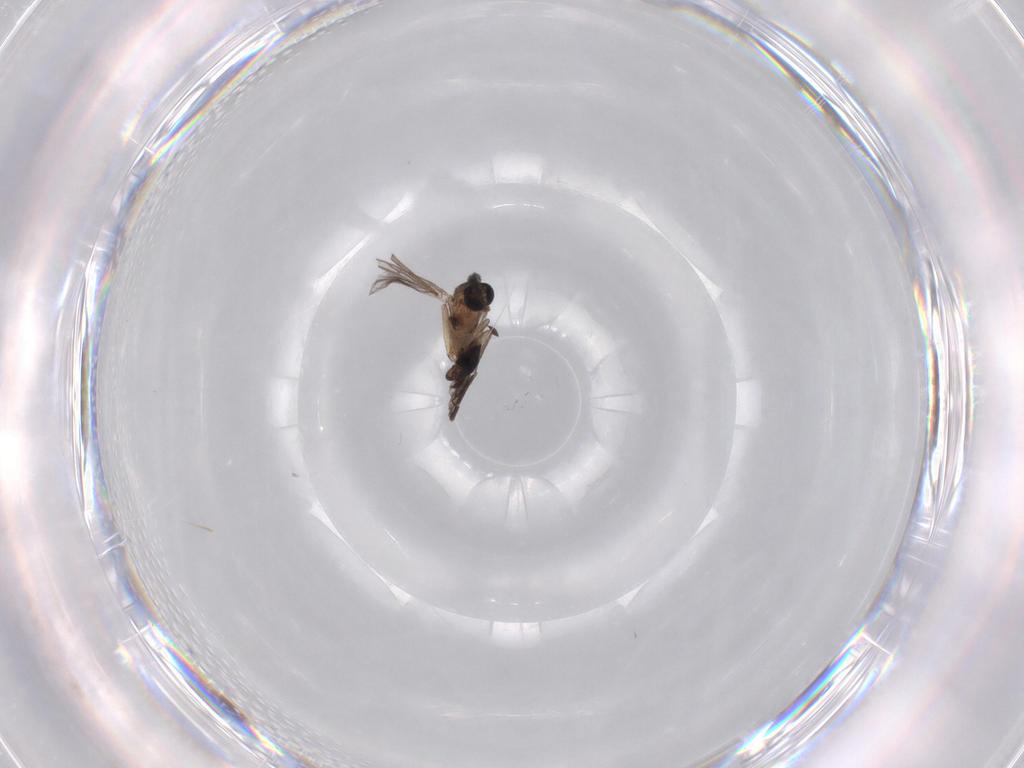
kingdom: Animalia
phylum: Arthropoda
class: Insecta
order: Diptera
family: Sciaridae
